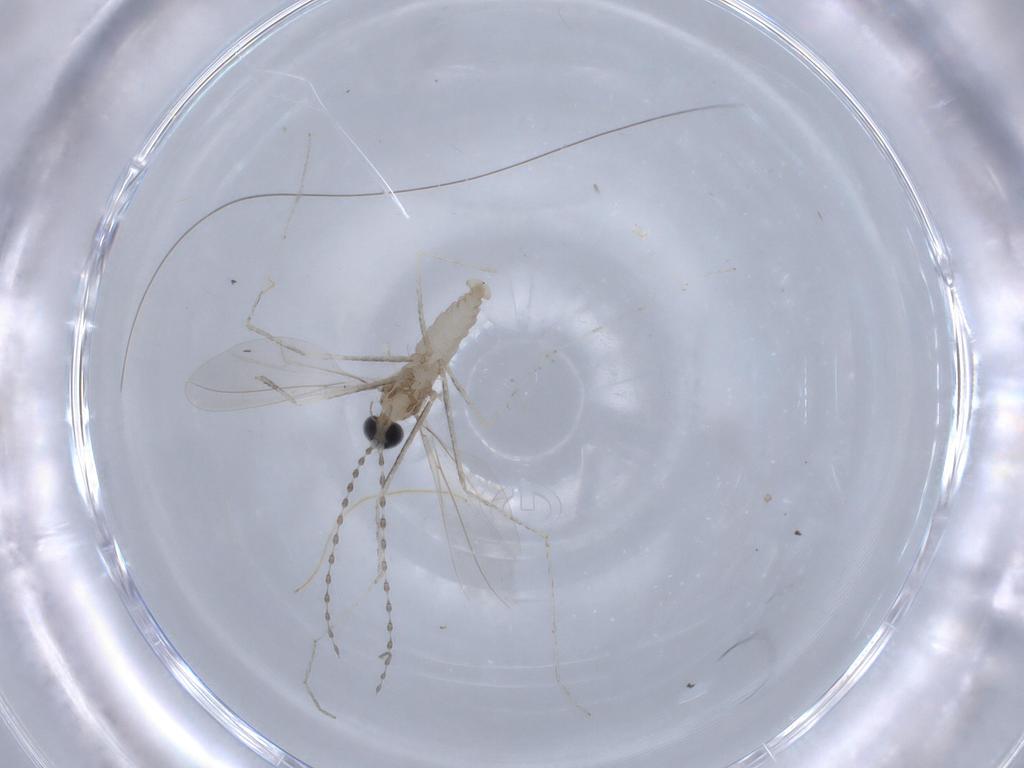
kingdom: Animalia
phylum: Arthropoda
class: Insecta
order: Diptera
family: Cecidomyiidae
